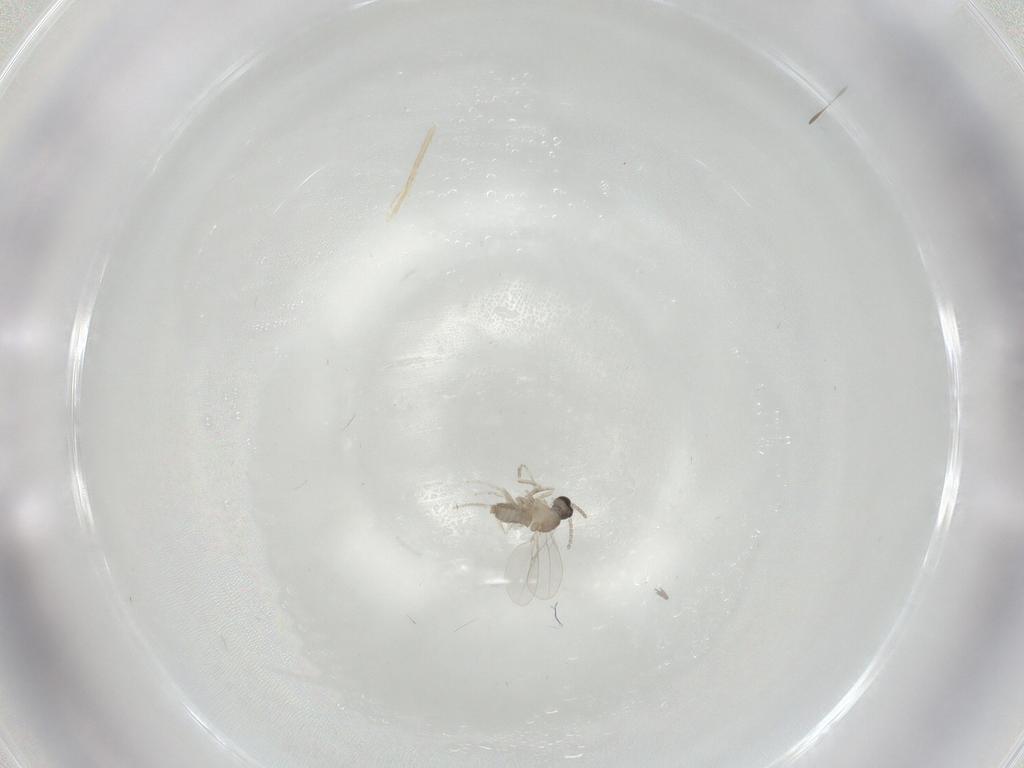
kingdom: Animalia
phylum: Arthropoda
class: Insecta
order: Diptera
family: Cecidomyiidae
